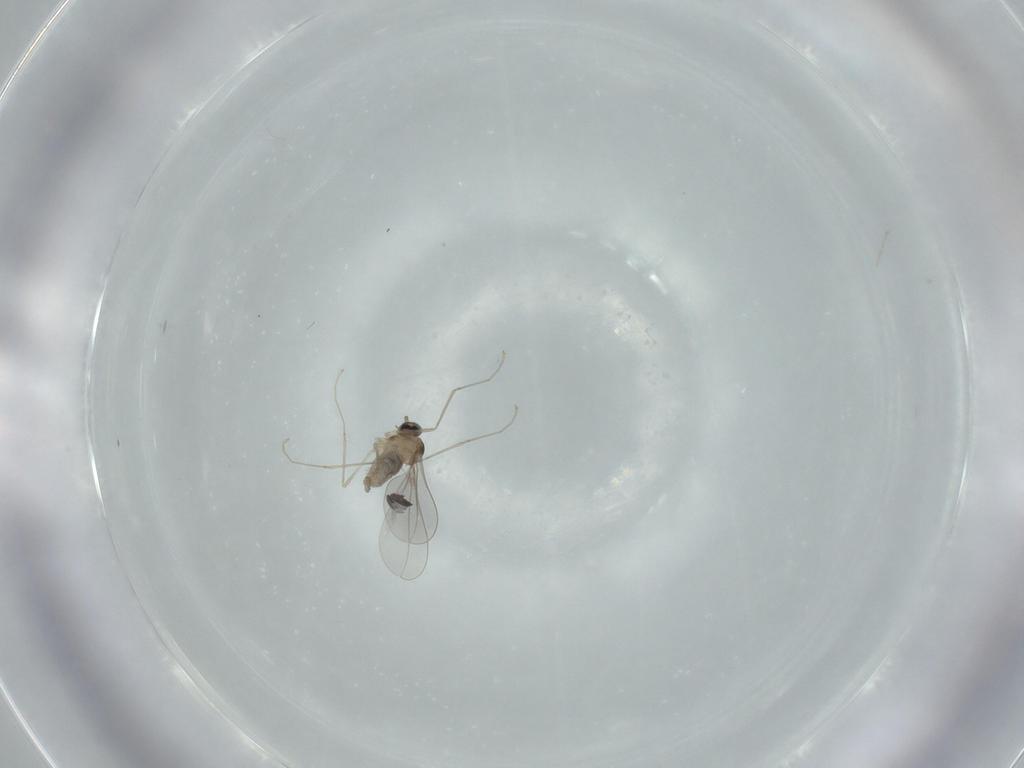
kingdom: Animalia
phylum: Arthropoda
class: Insecta
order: Diptera
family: Cecidomyiidae
